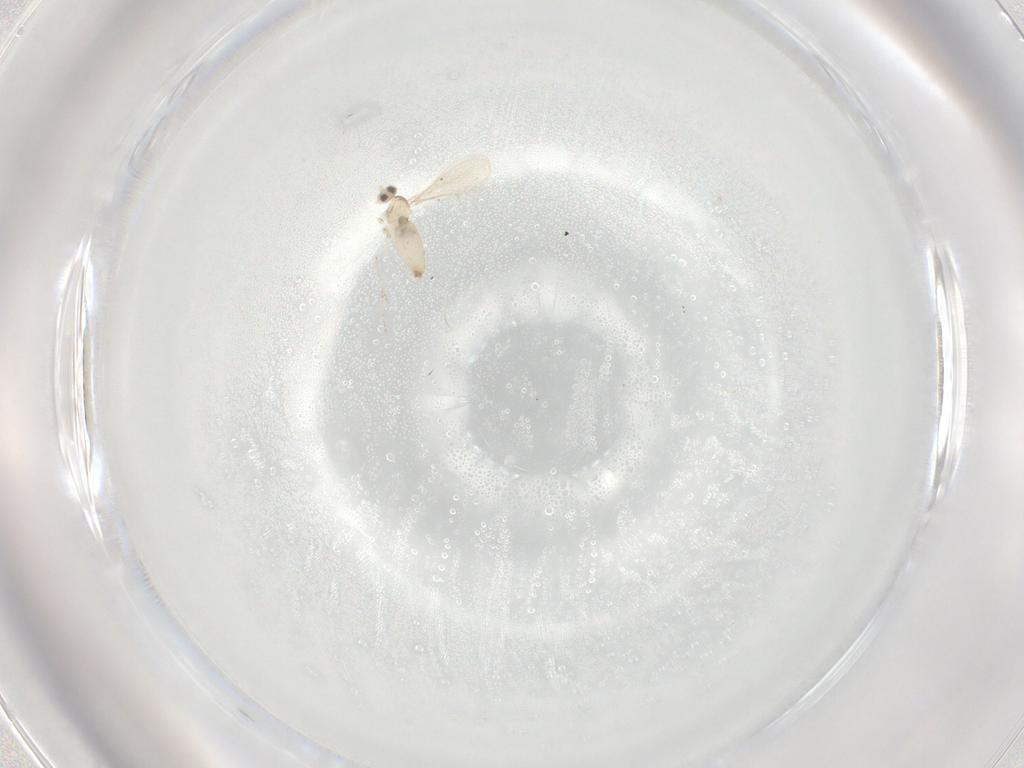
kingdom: Animalia
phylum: Arthropoda
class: Insecta
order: Diptera
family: Cecidomyiidae
